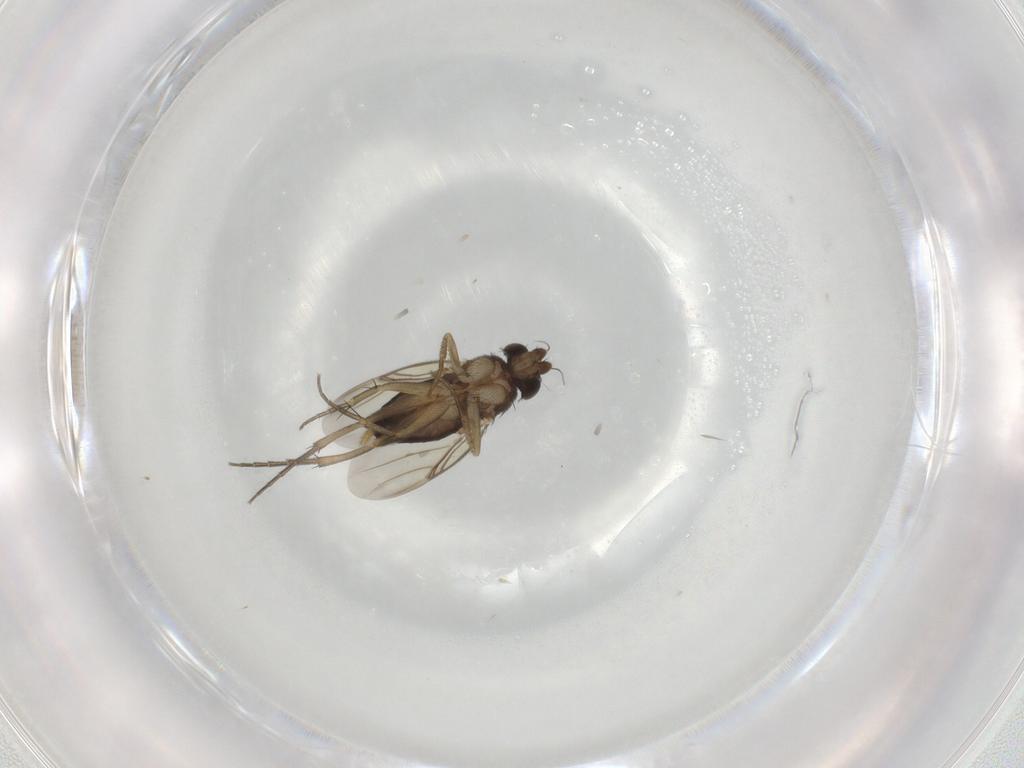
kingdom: Animalia
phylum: Arthropoda
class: Insecta
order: Diptera
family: Phoridae
